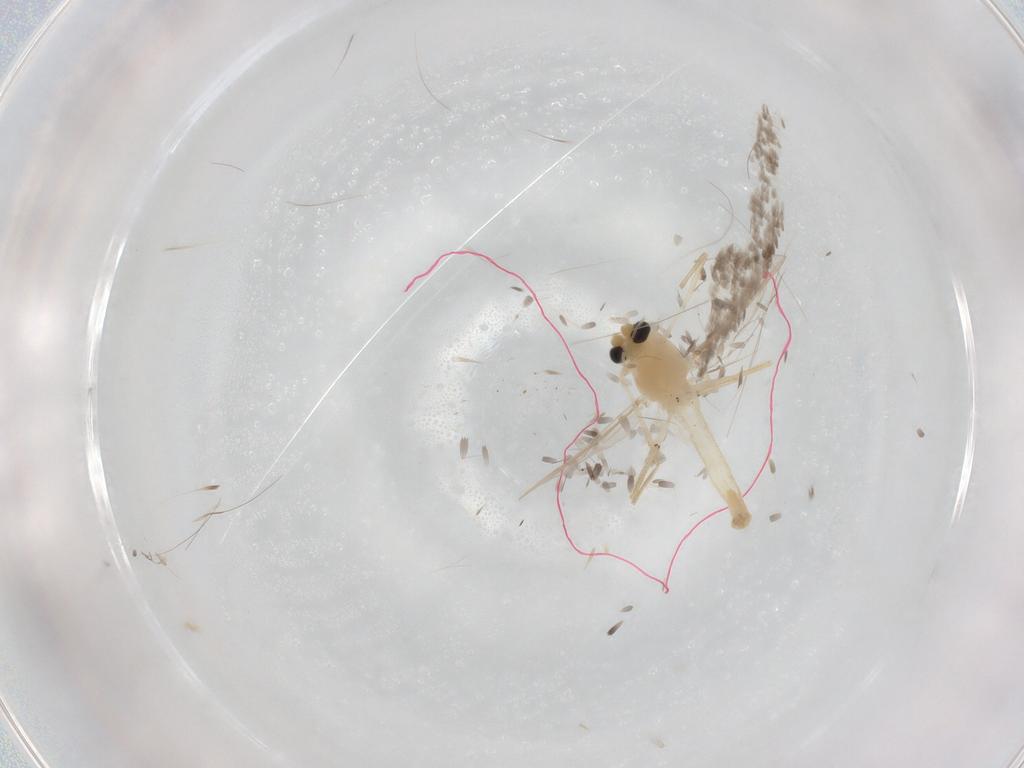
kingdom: Animalia
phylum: Arthropoda
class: Insecta
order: Diptera
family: Chironomidae
